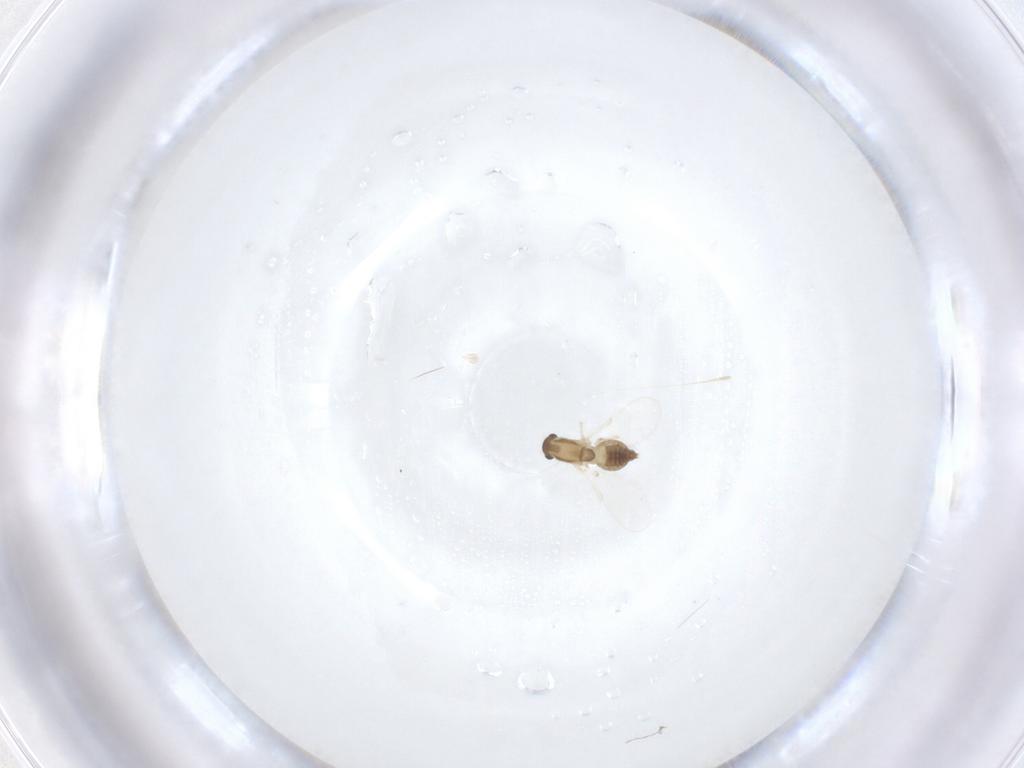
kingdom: Animalia
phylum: Arthropoda
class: Insecta
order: Diptera
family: Chironomidae
